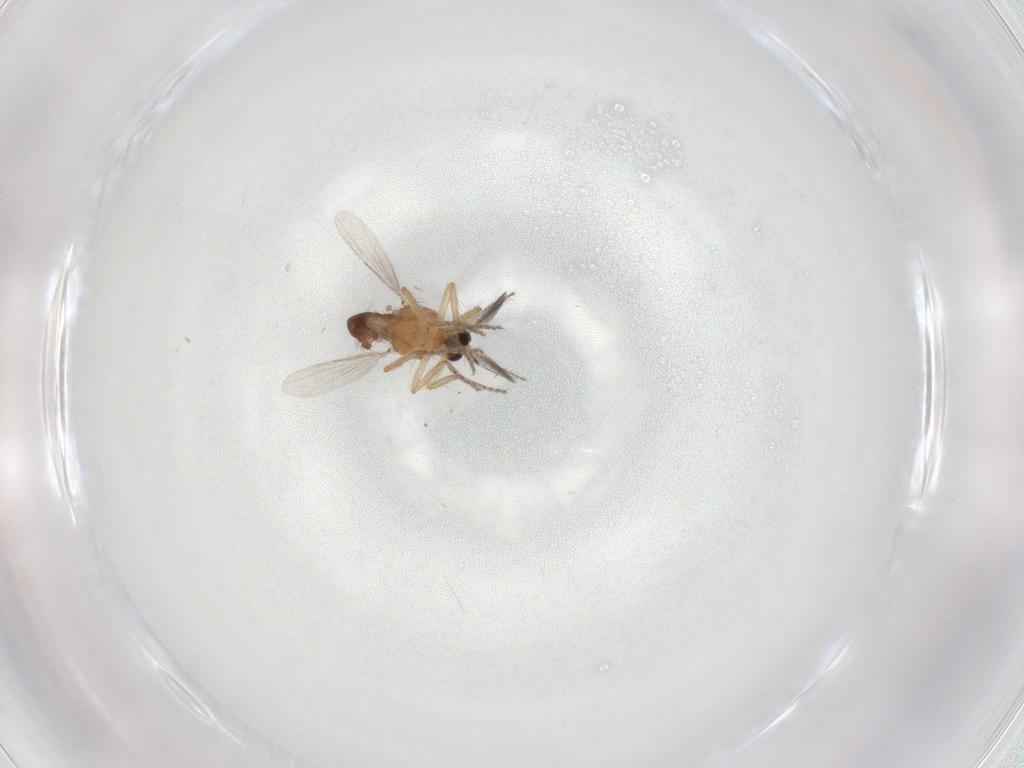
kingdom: Animalia
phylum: Arthropoda
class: Insecta
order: Diptera
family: Ceratopogonidae
